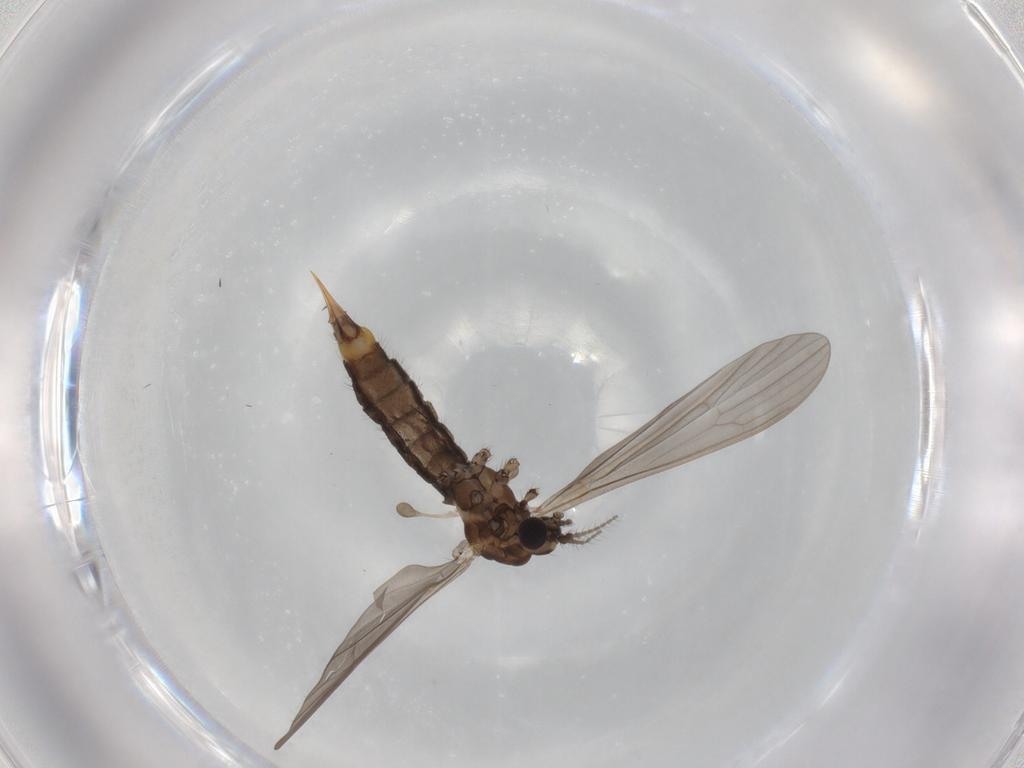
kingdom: Animalia
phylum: Arthropoda
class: Insecta
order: Diptera
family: Limoniidae
